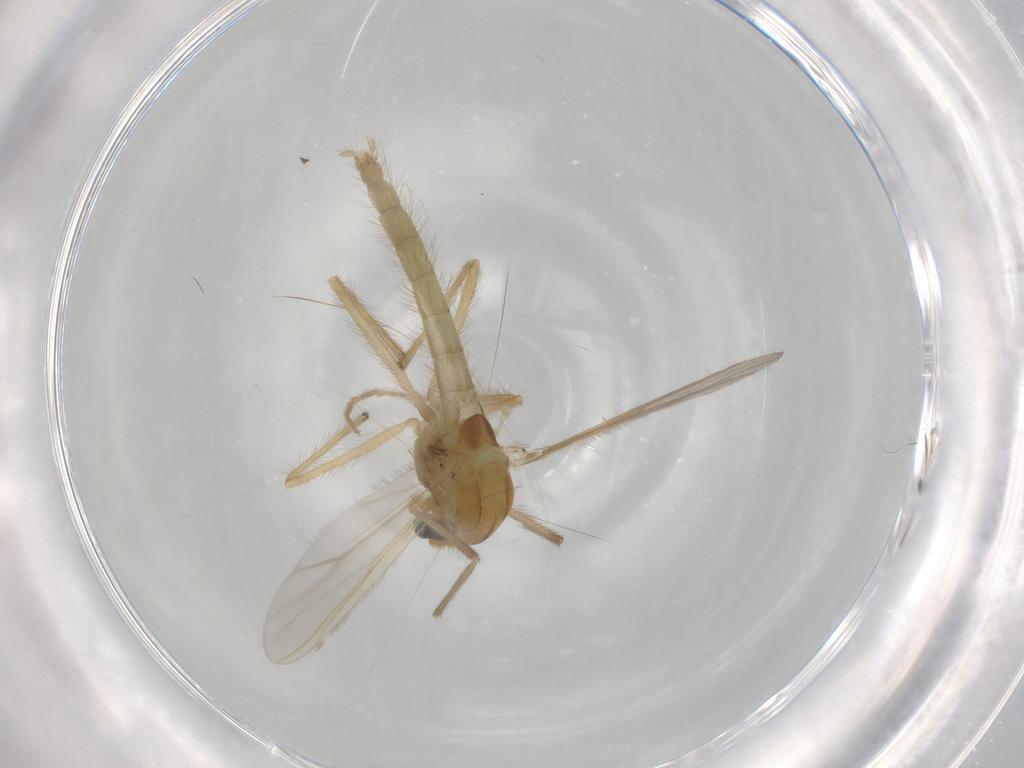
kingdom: Animalia
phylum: Arthropoda
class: Insecta
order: Diptera
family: Chironomidae
